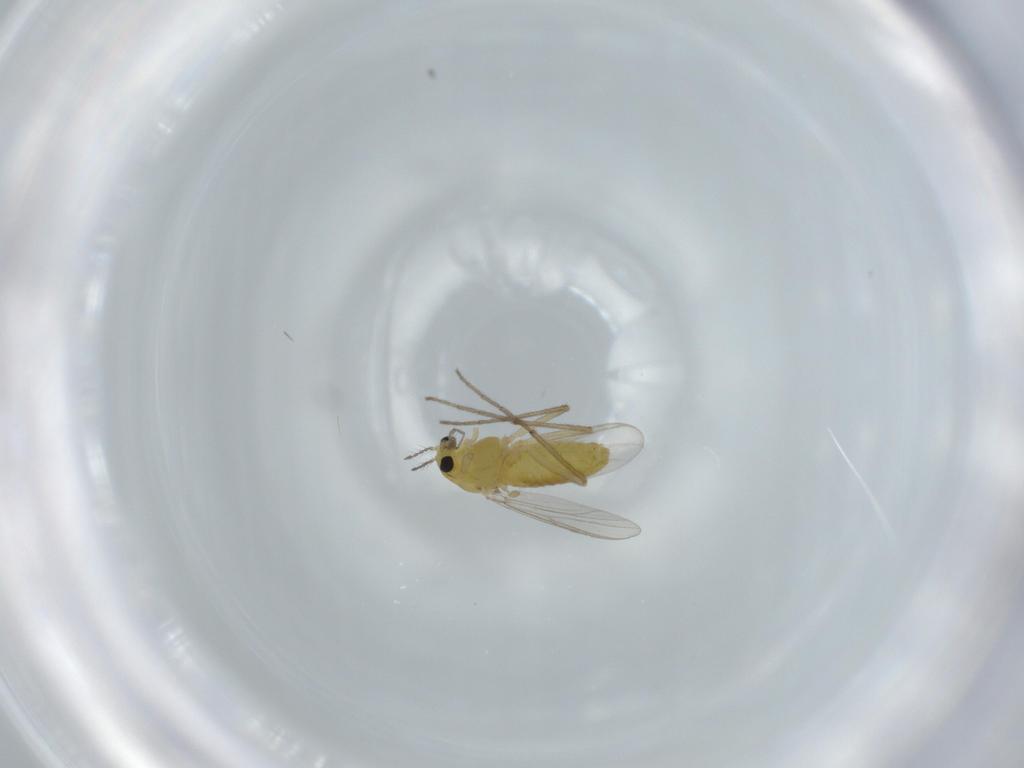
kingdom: Animalia
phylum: Arthropoda
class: Insecta
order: Diptera
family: Chironomidae
